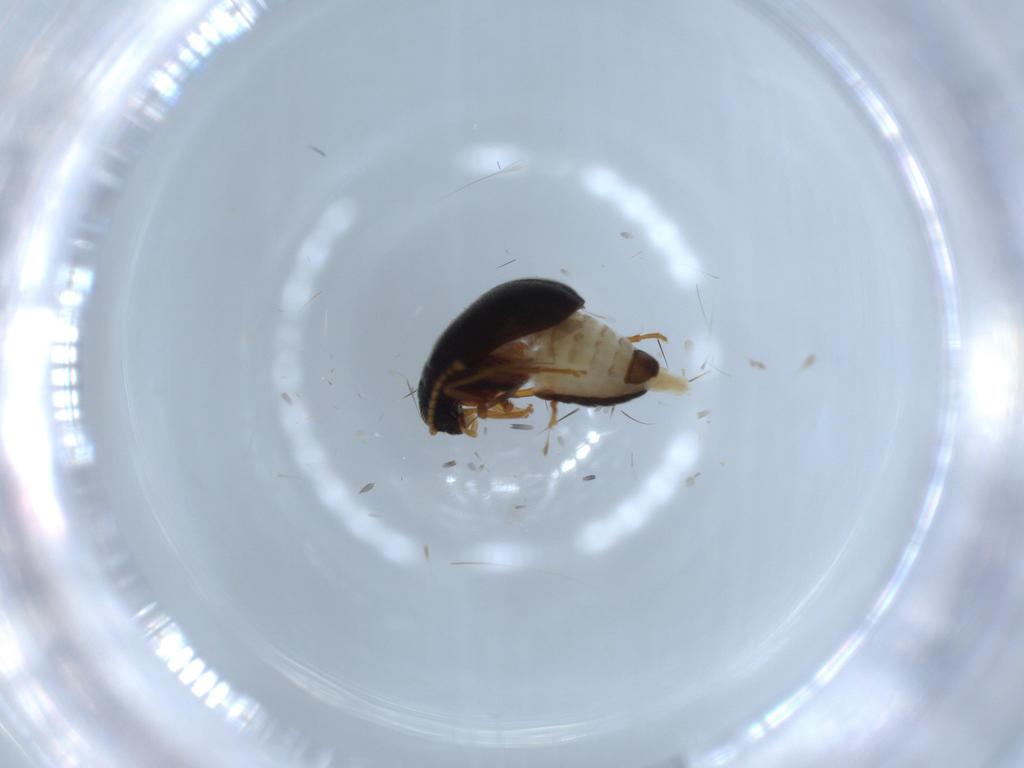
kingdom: Animalia
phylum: Arthropoda
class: Insecta
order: Coleoptera
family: Aderidae
